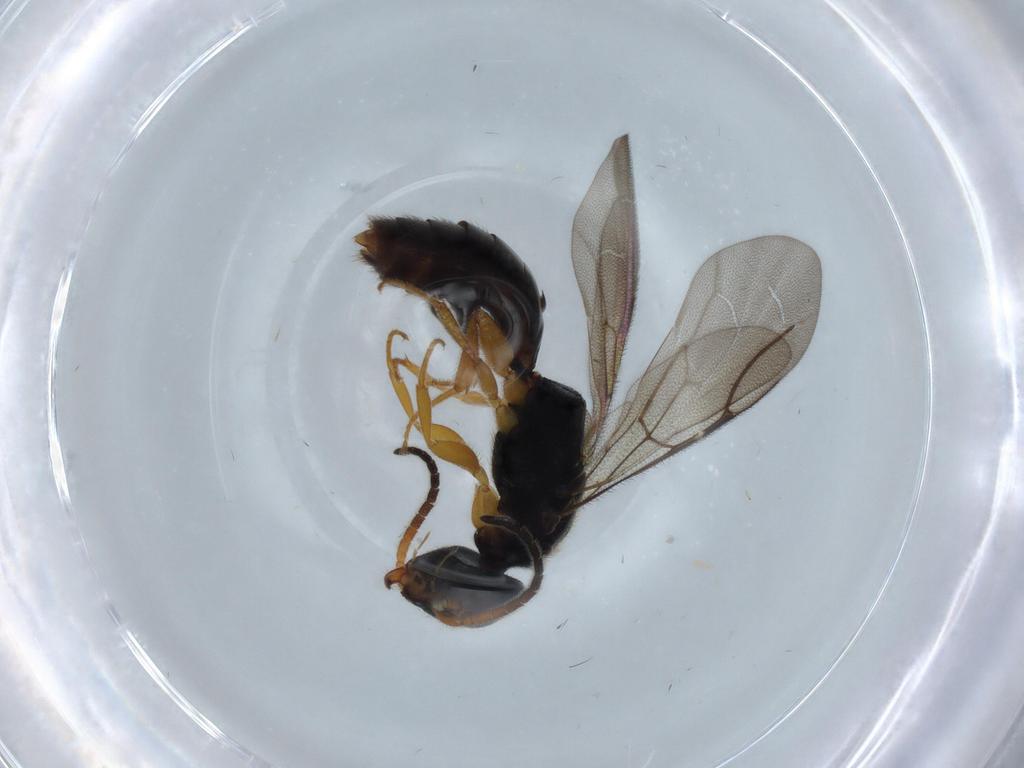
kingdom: Animalia
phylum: Arthropoda
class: Insecta
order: Hymenoptera
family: Bethylidae
